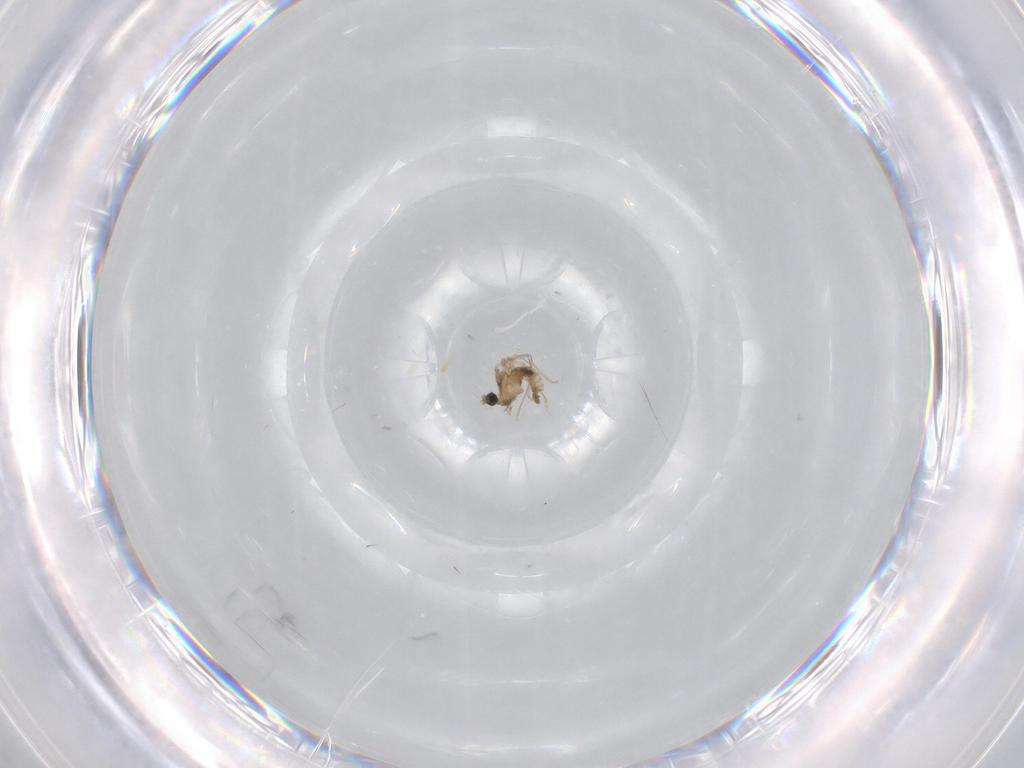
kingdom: Animalia
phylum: Arthropoda
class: Insecta
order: Diptera
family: Cecidomyiidae
